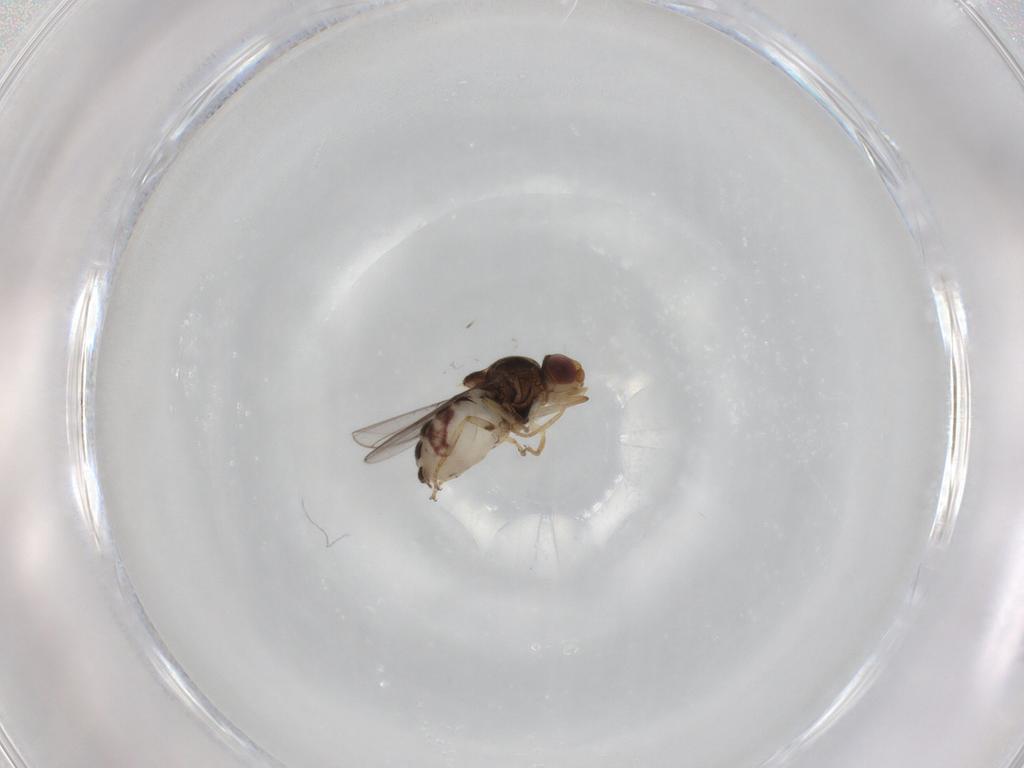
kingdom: Animalia
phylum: Arthropoda
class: Insecta
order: Diptera
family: Chloropidae
